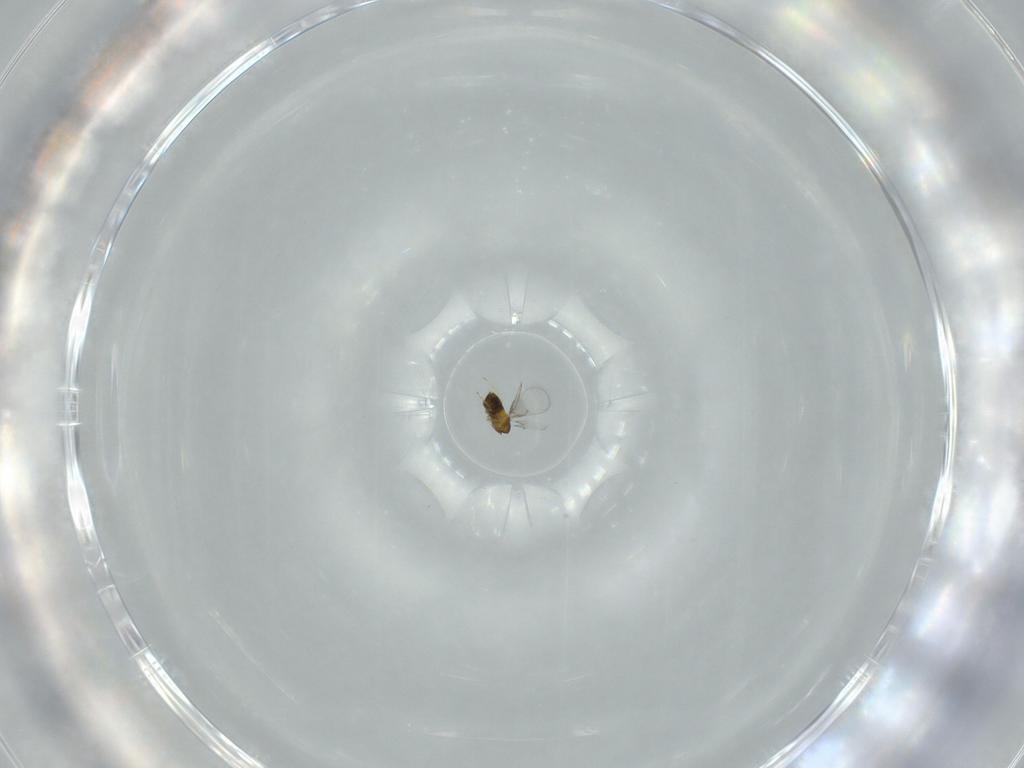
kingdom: Animalia
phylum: Arthropoda
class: Insecta
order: Hymenoptera
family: Trichogrammatidae
